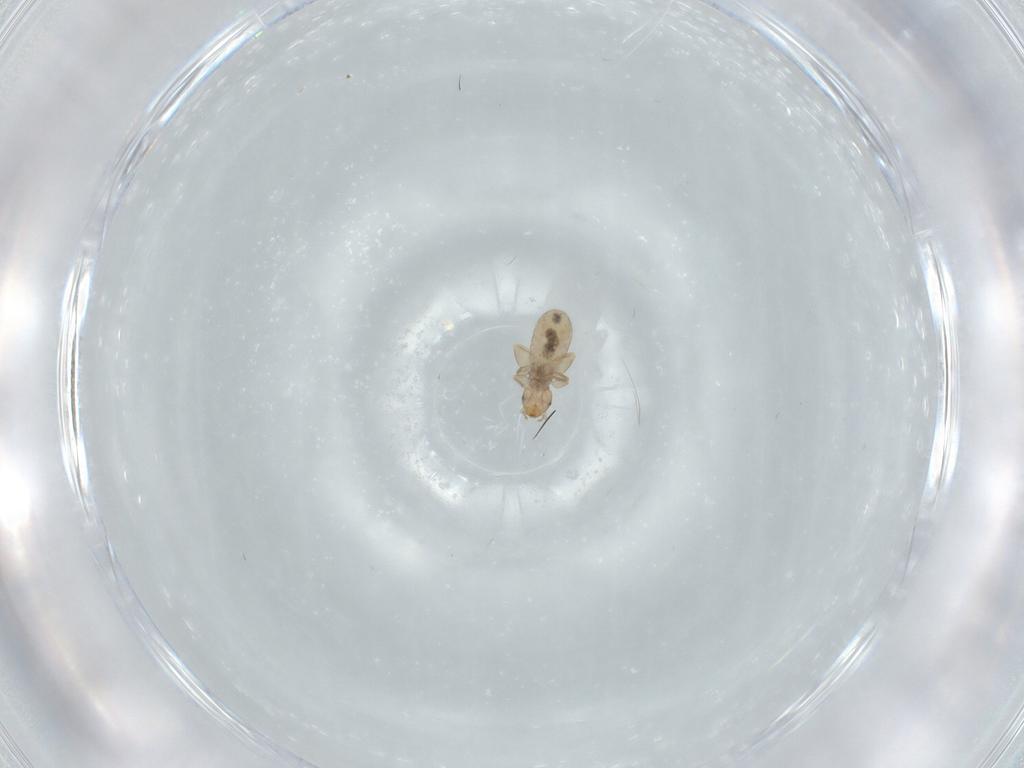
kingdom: Animalia
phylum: Arthropoda
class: Insecta
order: Psocodea
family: Liposcelididae
